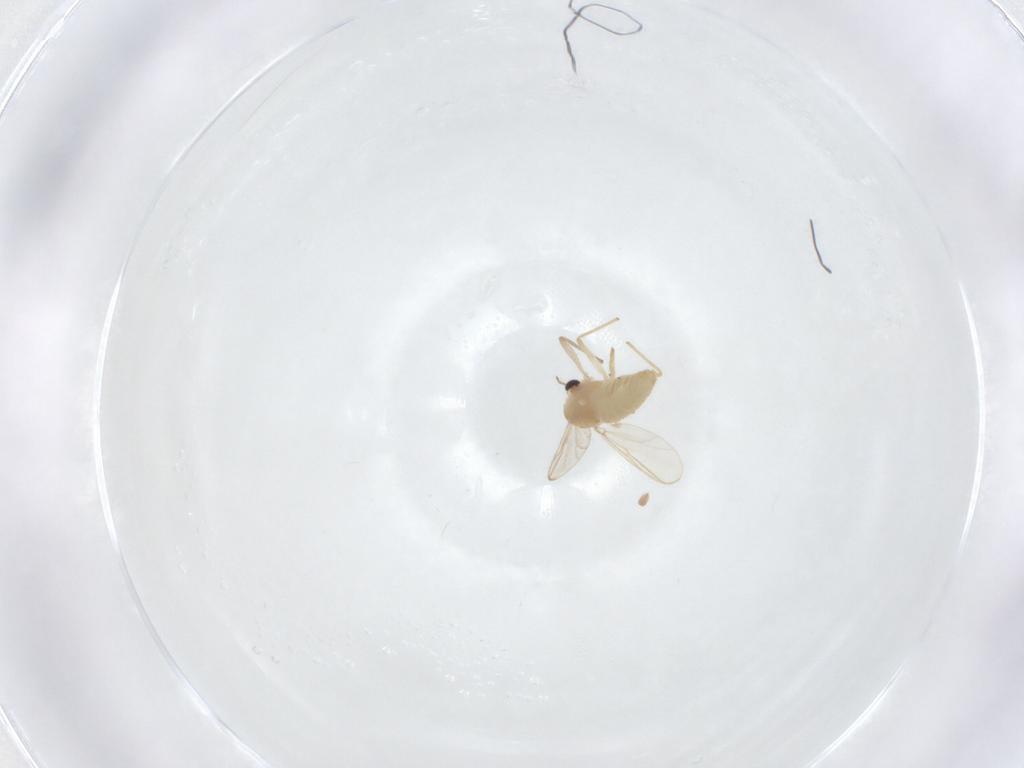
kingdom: Animalia
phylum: Arthropoda
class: Insecta
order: Diptera
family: Chironomidae
